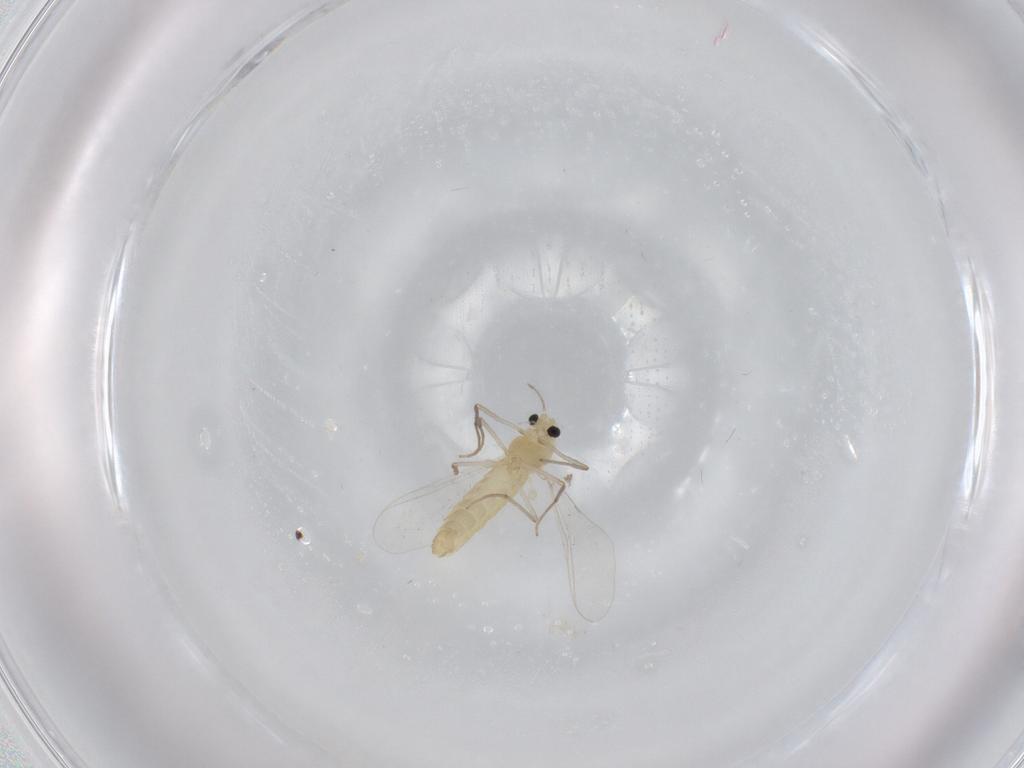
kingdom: Animalia
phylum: Arthropoda
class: Insecta
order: Diptera
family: Chironomidae
